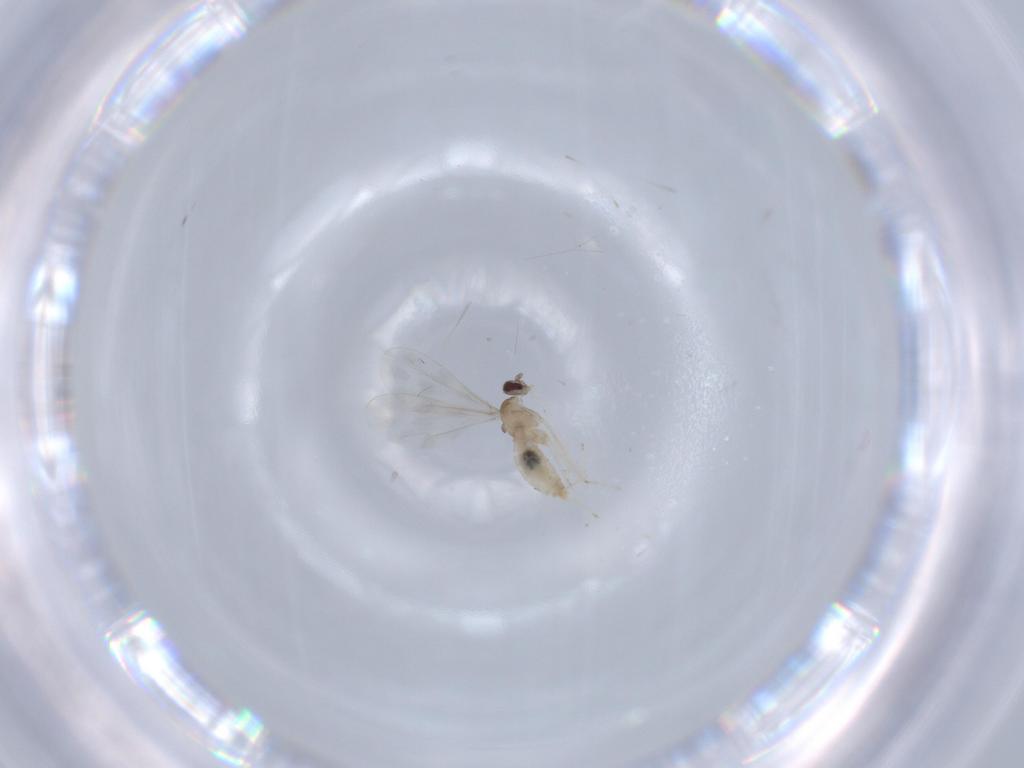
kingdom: Animalia
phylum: Arthropoda
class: Insecta
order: Diptera
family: Cecidomyiidae
